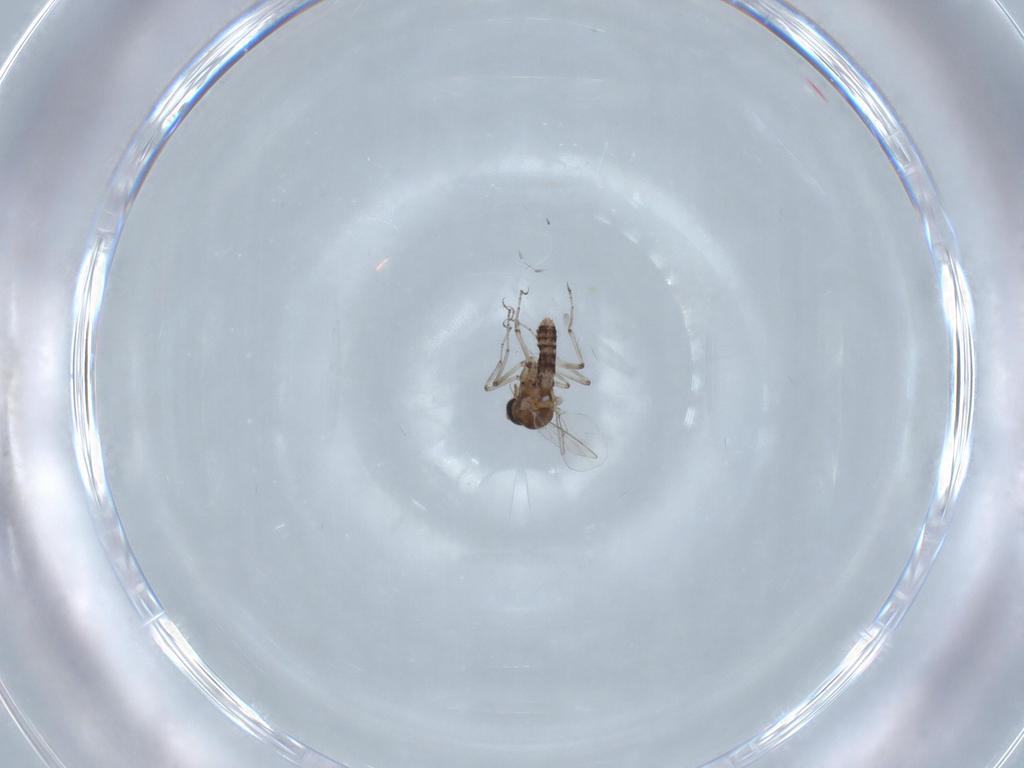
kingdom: Animalia
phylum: Arthropoda
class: Insecta
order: Diptera
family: Ceratopogonidae
